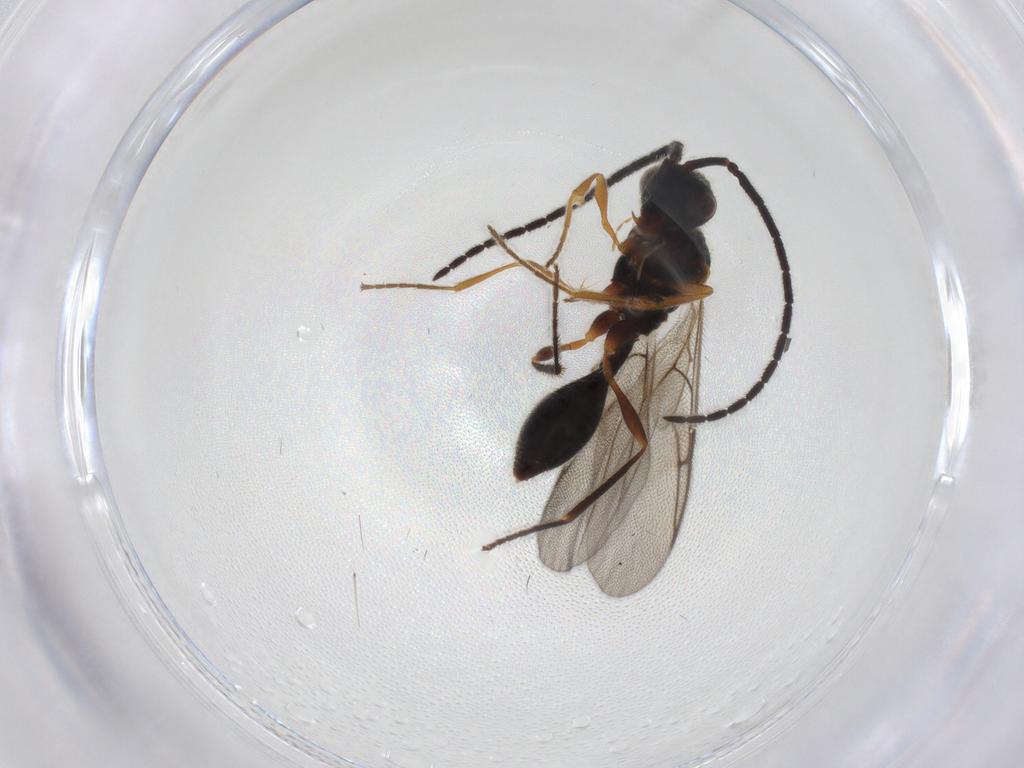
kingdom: Animalia
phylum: Arthropoda
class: Insecta
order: Hymenoptera
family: Diapriidae
